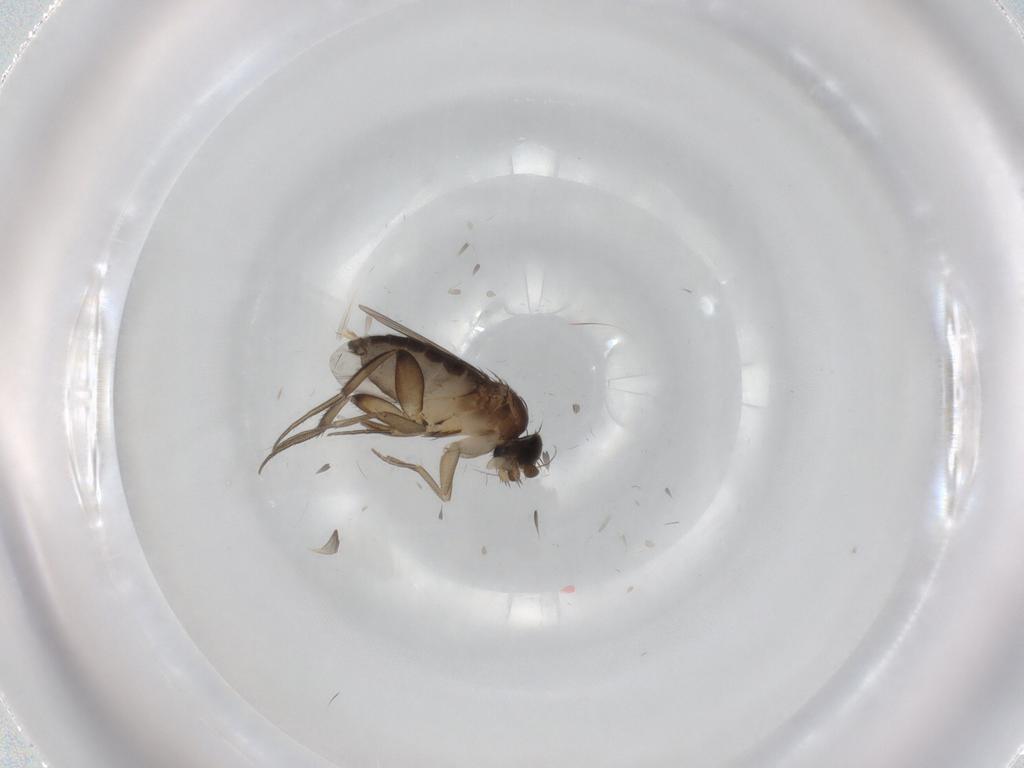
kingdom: Animalia
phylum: Arthropoda
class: Insecta
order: Diptera
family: Phoridae
